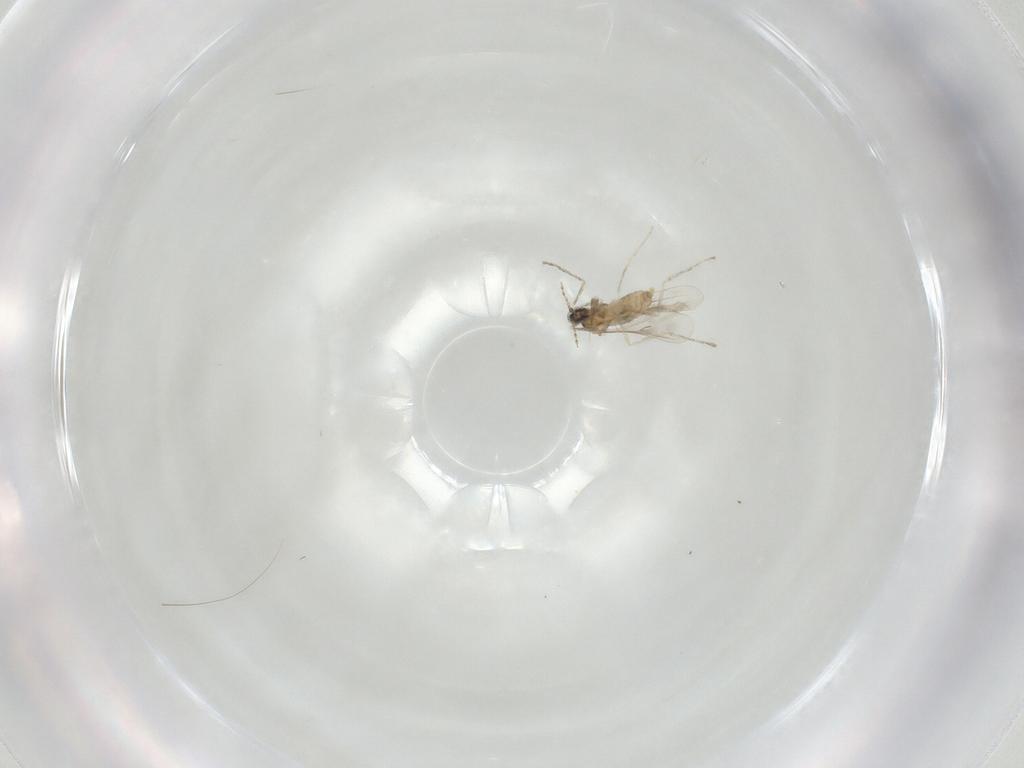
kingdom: Animalia
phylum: Arthropoda
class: Insecta
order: Diptera
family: Cecidomyiidae
